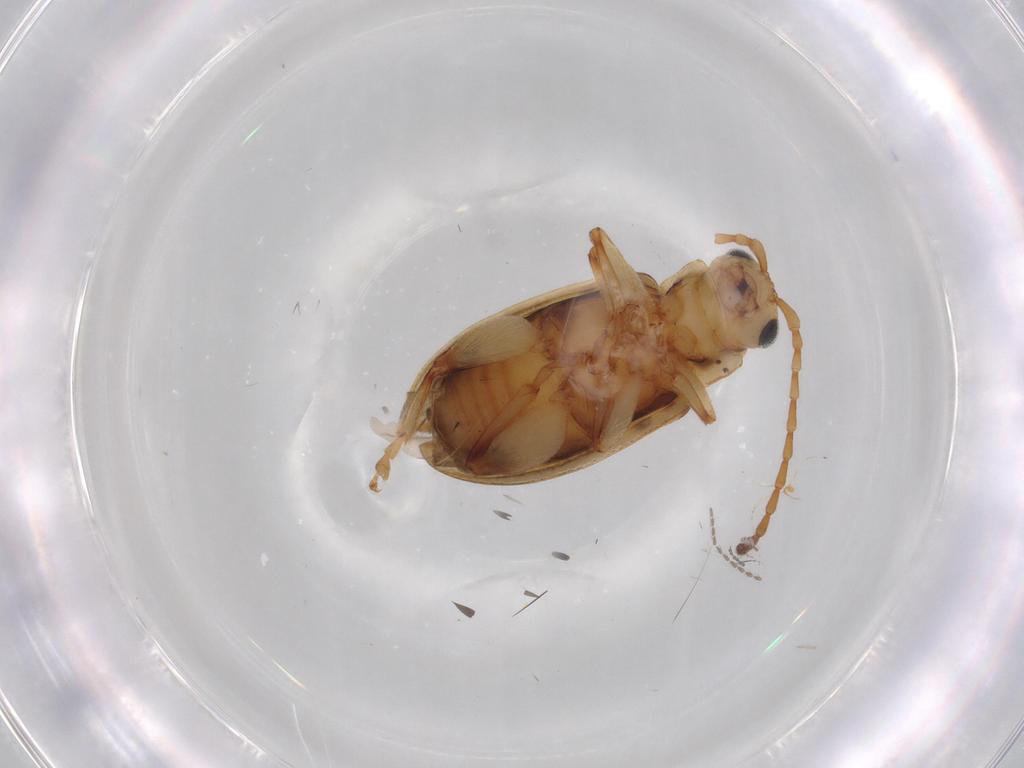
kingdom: Animalia
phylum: Arthropoda
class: Insecta
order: Coleoptera
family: Chrysomelidae
